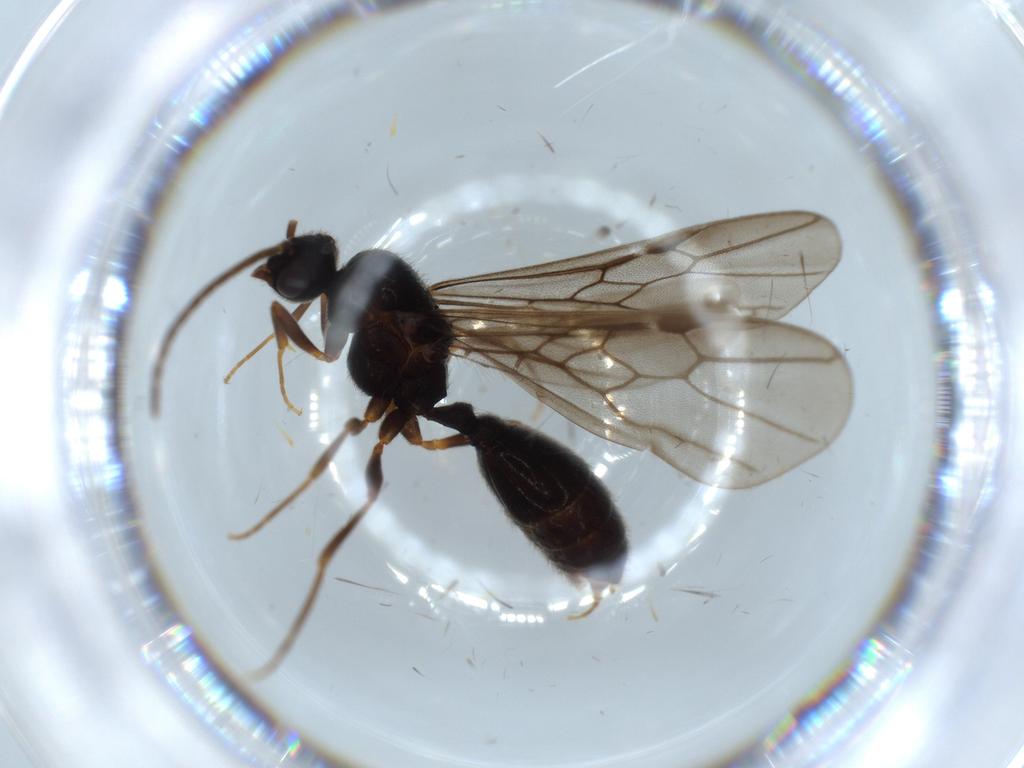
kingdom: Animalia
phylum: Arthropoda
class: Insecta
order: Hymenoptera
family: Formicidae
